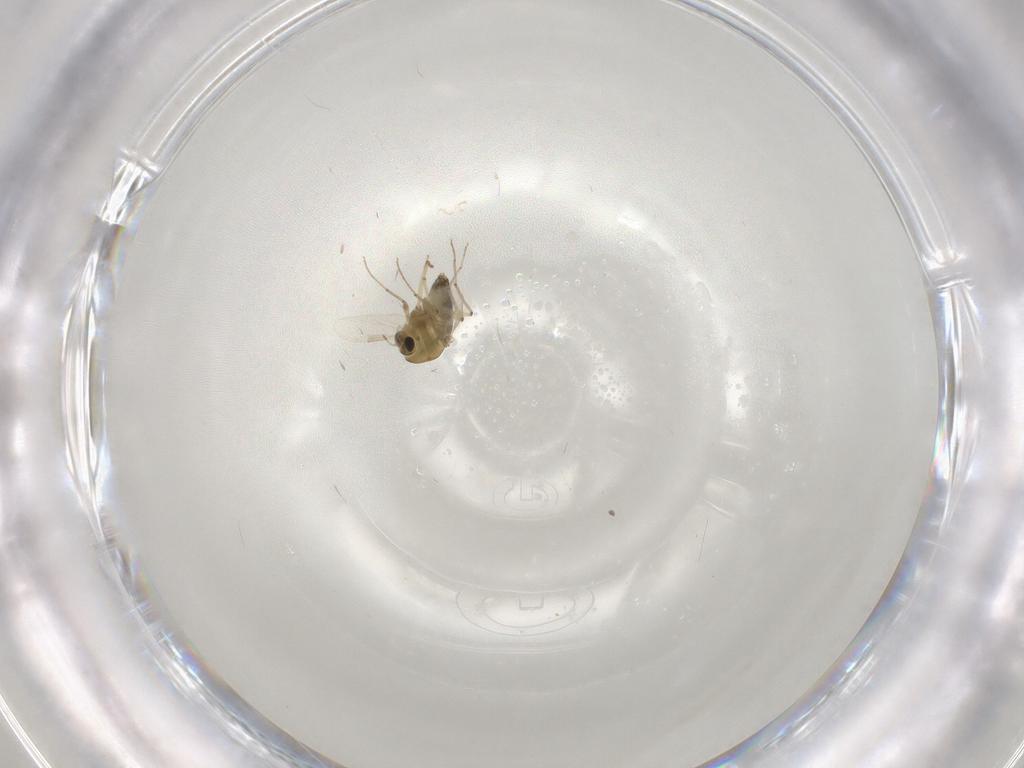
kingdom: Animalia
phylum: Arthropoda
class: Insecta
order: Diptera
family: Chironomidae
